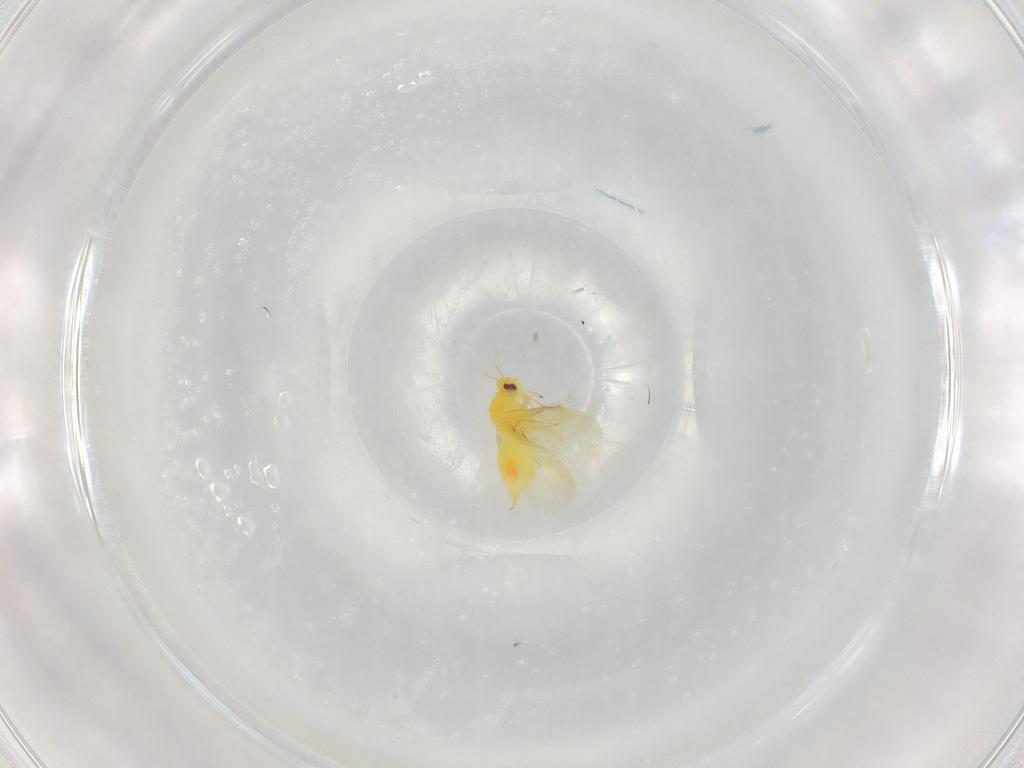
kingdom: Animalia
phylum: Arthropoda
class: Insecta
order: Hemiptera
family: Aleyrodidae
